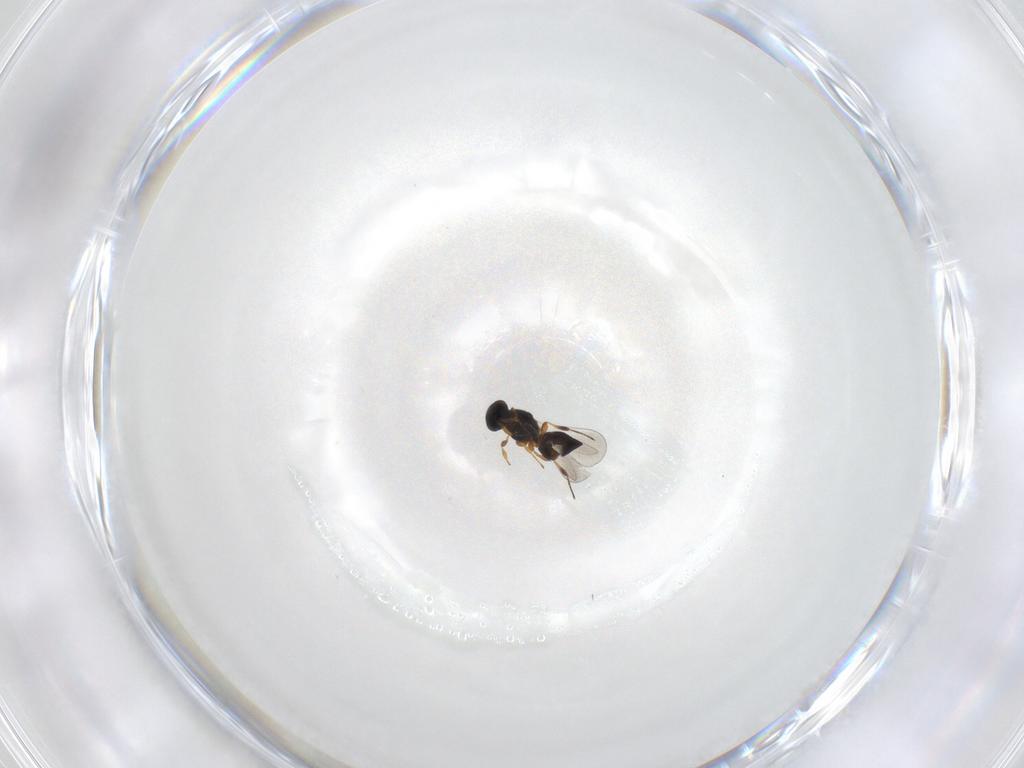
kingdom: Animalia
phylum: Arthropoda
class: Insecta
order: Hymenoptera
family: Platygastridae
